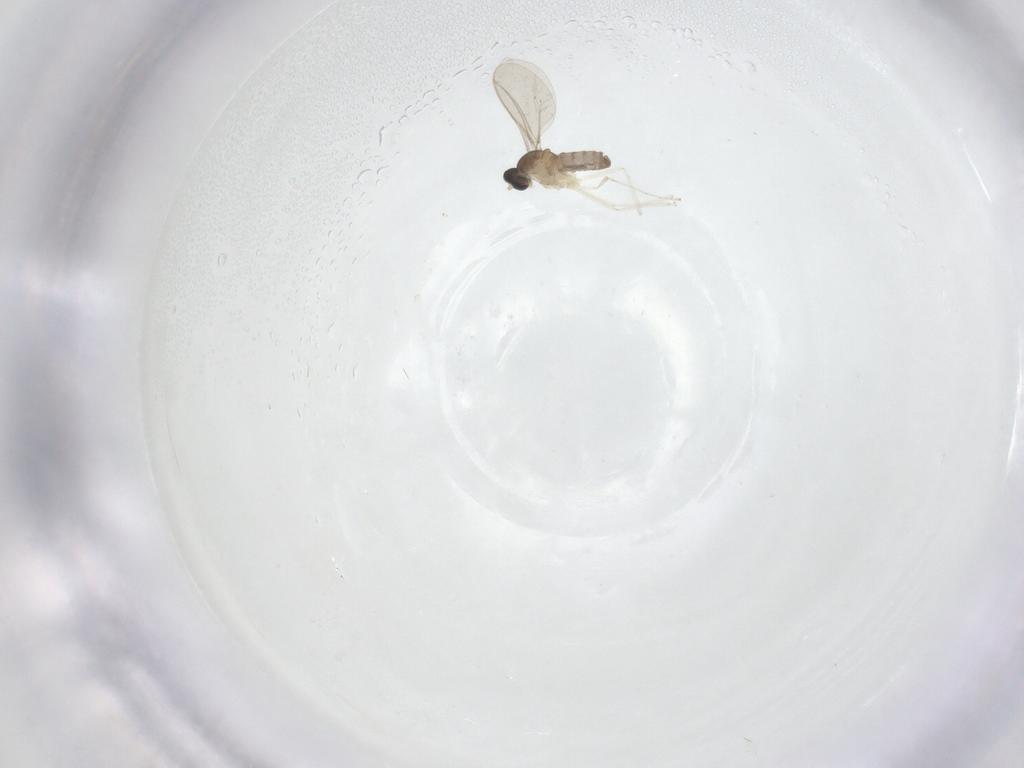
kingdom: Animalia
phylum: Arthropoda
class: Insecta
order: Diptera
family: Cecidomyiidae
